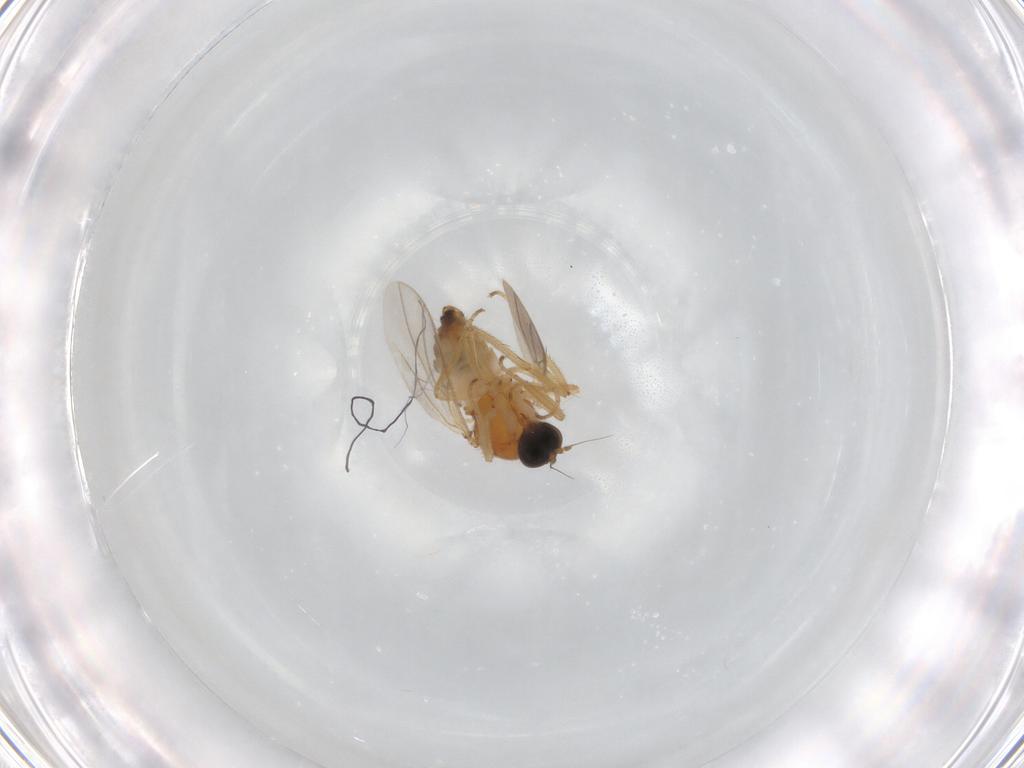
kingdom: Animalia
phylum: Arthropoda
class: Insecta
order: Diptera
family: Hybotidae
